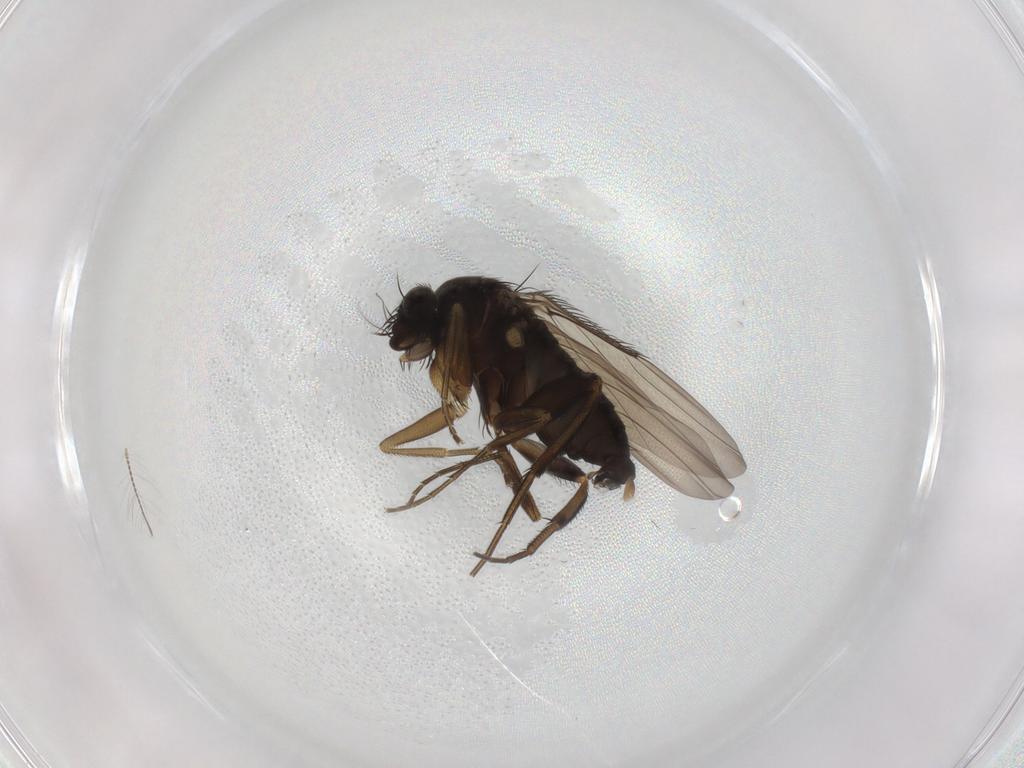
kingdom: Animalia
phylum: Arthropoda
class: Insecta
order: Diptera
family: Phoridae
